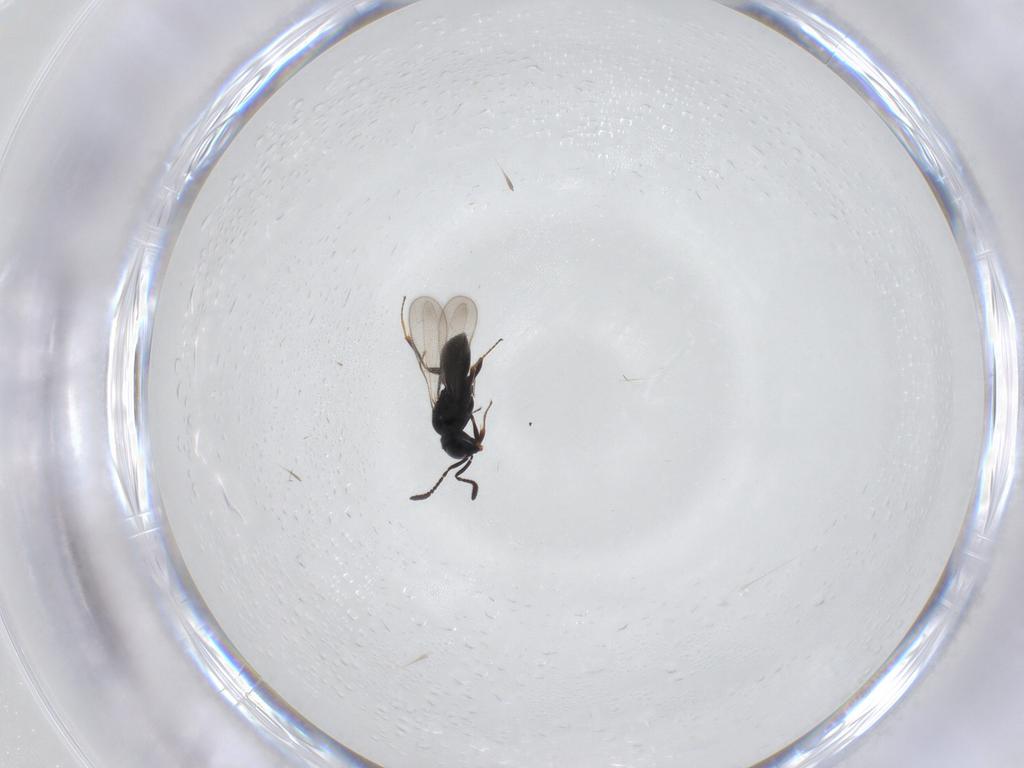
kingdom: Animalia
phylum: Arthropoda
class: Insecta
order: Hymenoptera
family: Scelionidae
